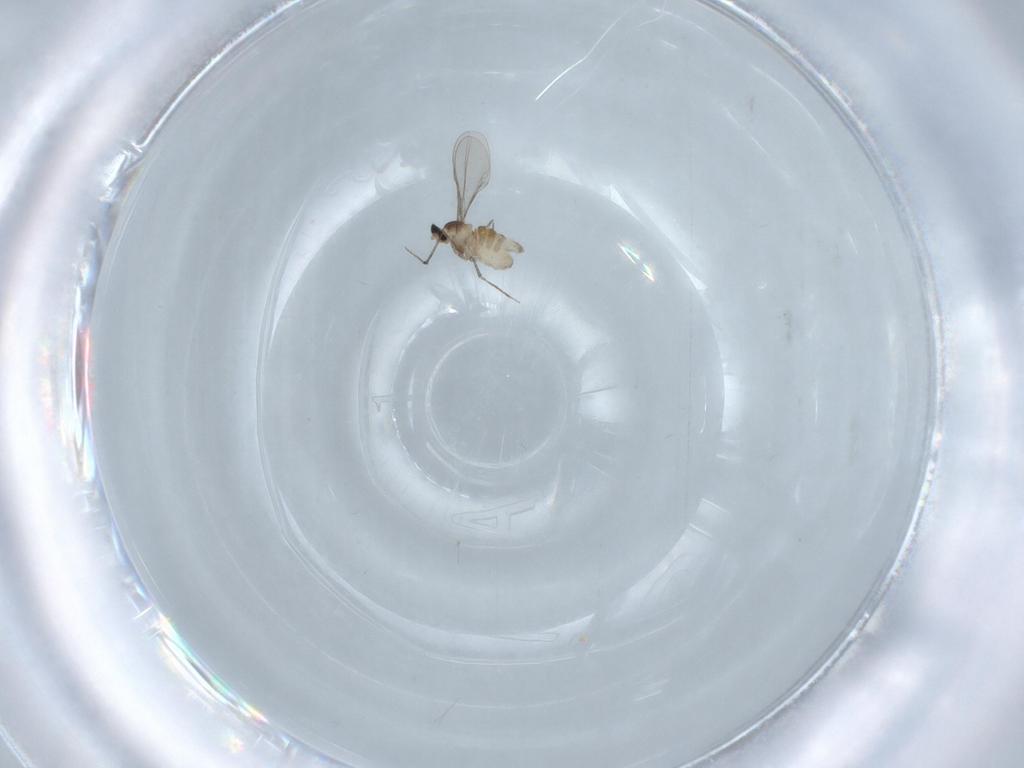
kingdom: Animalia
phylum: Arthropoda
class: Insecta
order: Diptera
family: Cecidomyiidae
